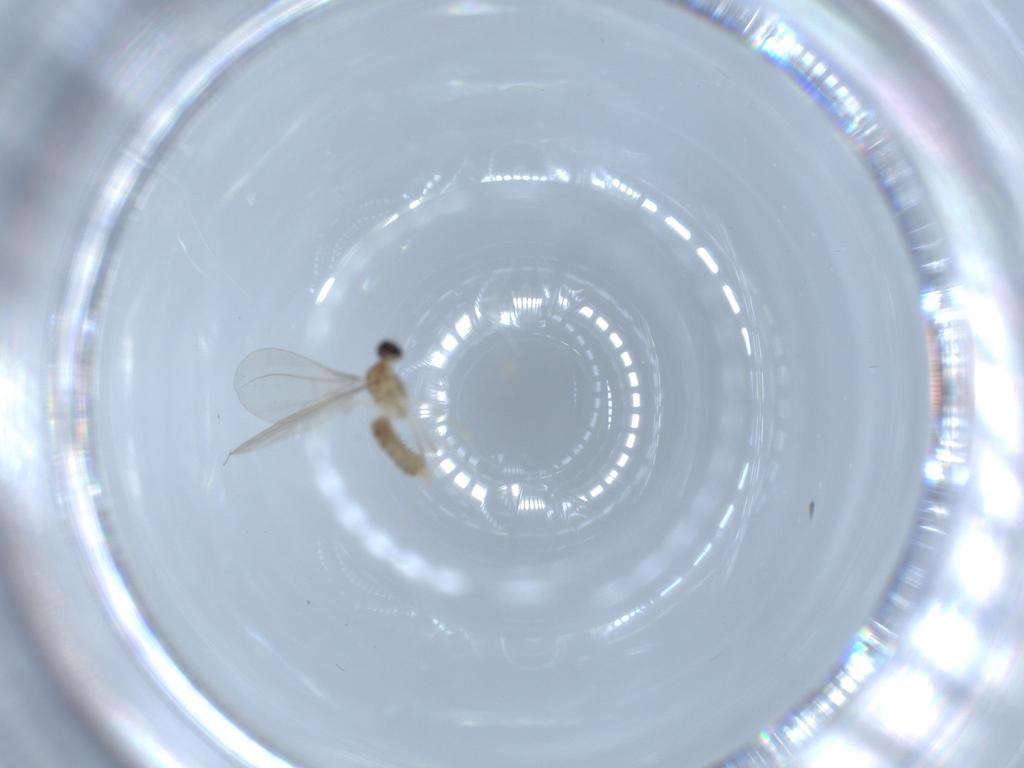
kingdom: Animalia
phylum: Arthropoda
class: Insecta
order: Diptera
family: Cecidomyiidae
